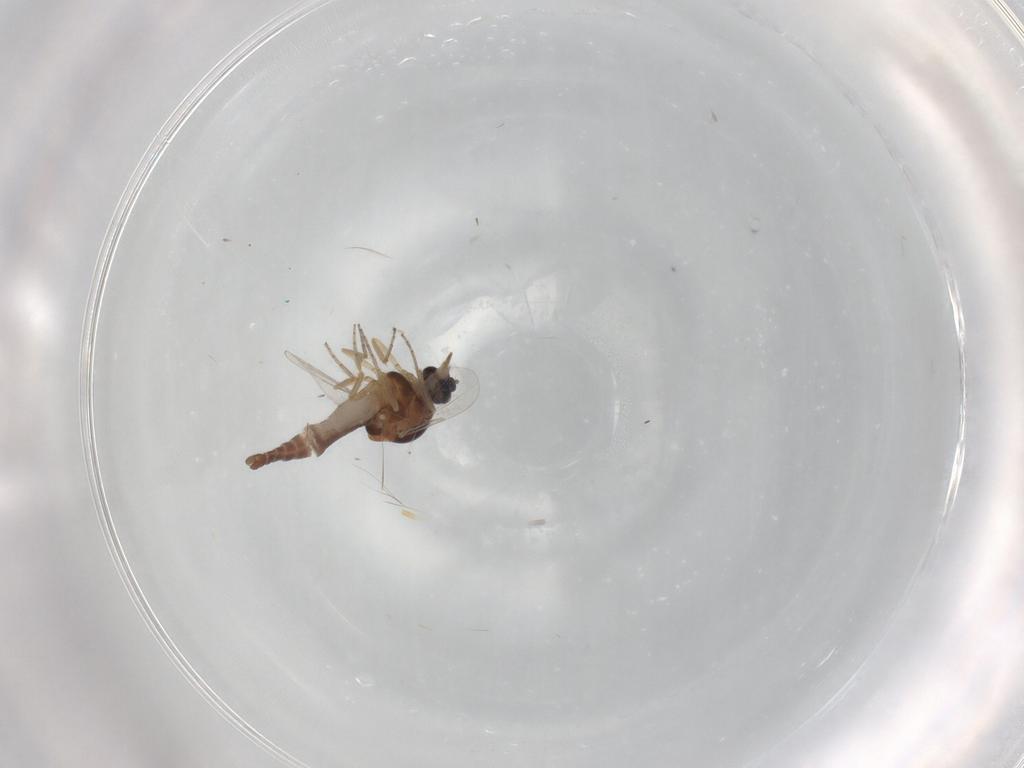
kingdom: Animalia
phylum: Arthropoda
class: Insecta
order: Diptera
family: Ceratopogonidae
